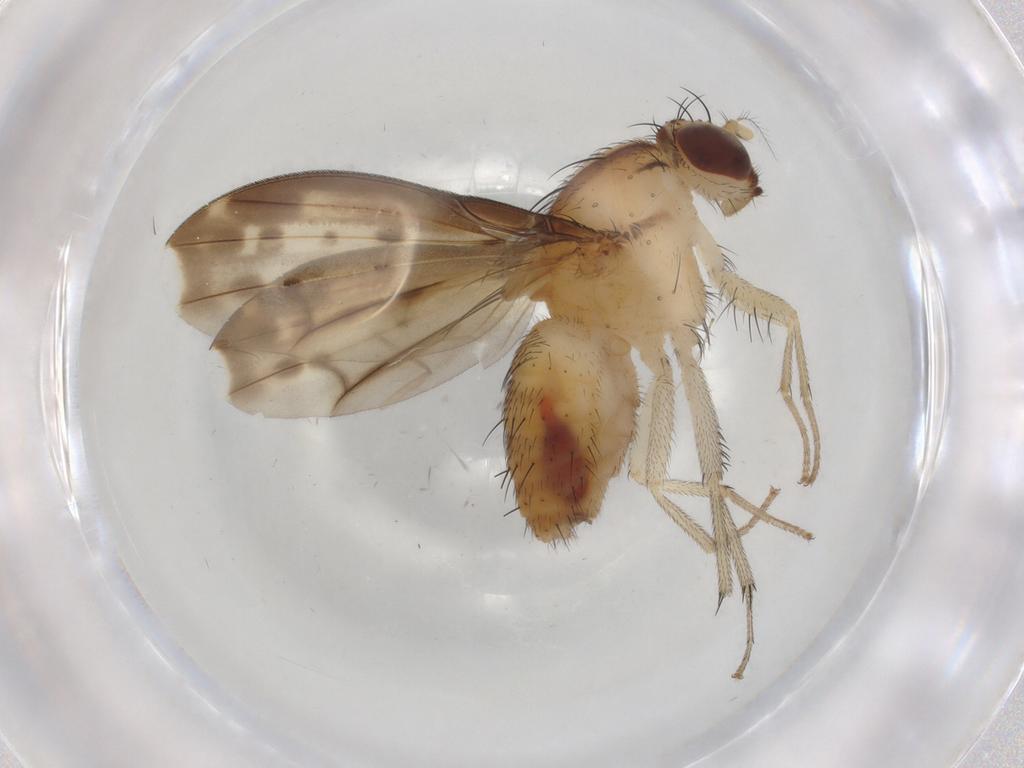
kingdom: Animalia
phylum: Arthropoda
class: Insecta
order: Diptera
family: Cecidomyiidae
